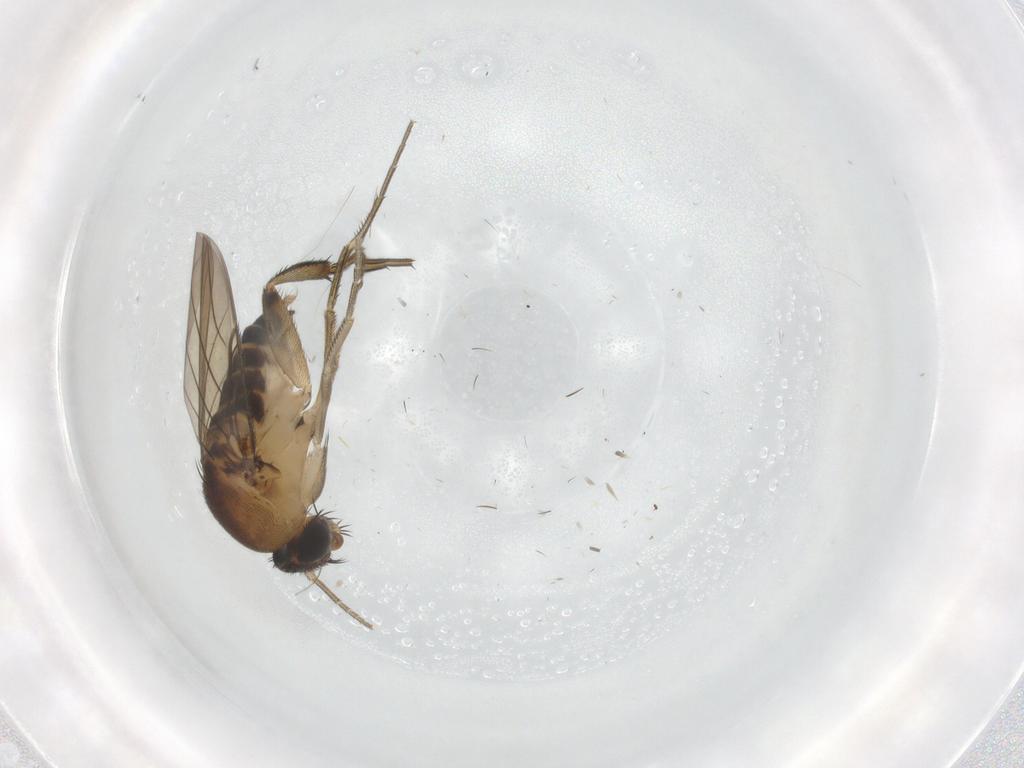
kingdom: Animalia
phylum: Arthropoda
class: Insecta
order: Diptera
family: Phoridae
